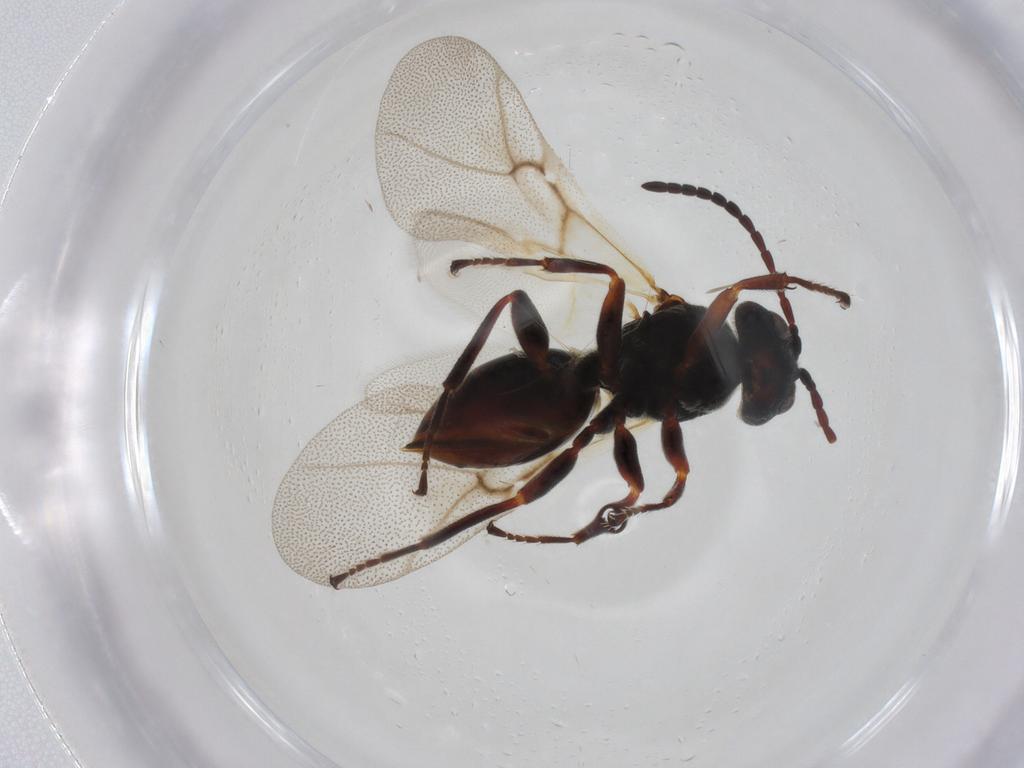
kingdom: Animalia
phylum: Arthropoda
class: Insecta
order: Hymenoptera
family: Cynipidae
